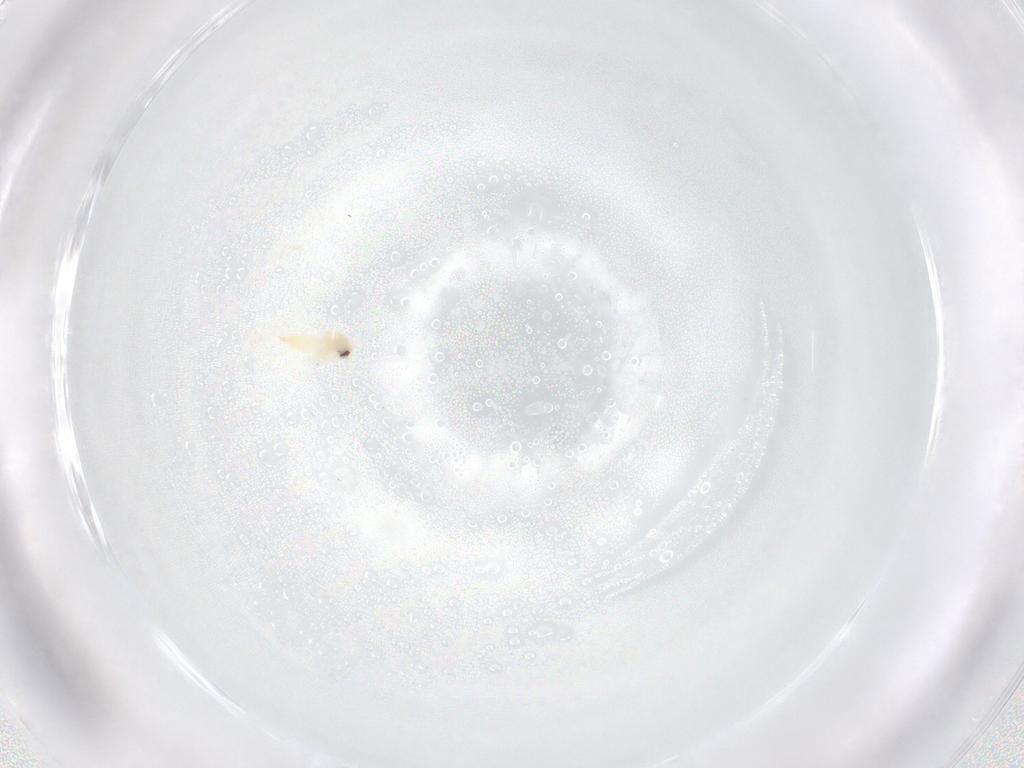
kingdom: Animalia
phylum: Arthropoda
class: Insecta
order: Hemiptera
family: Aleyrodidae
